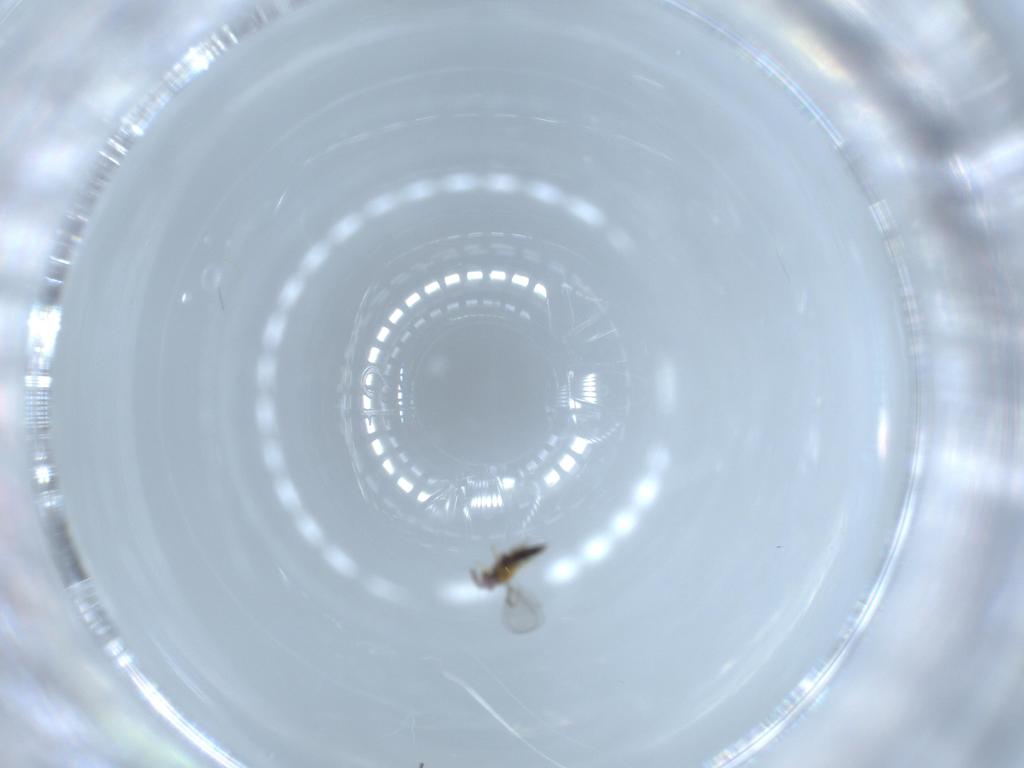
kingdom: Animalia
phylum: Arthropoda
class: Insecta
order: Hymenoptera
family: Trichogrammatidae
